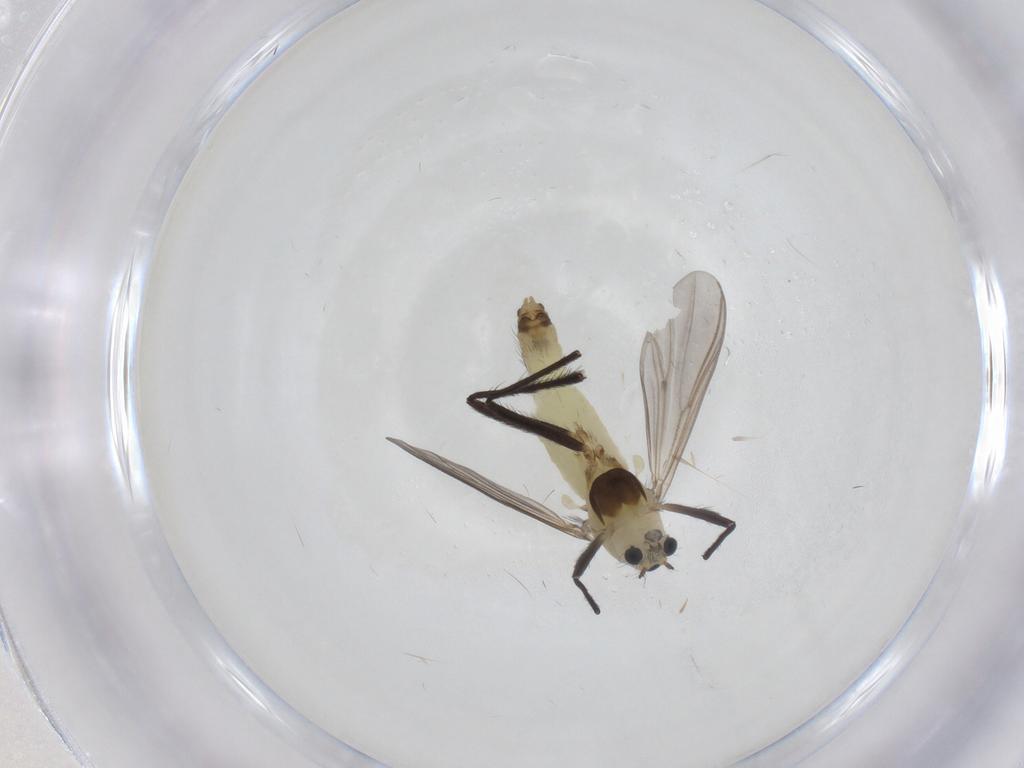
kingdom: Animalia
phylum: Arthropoda
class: Insecta
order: Diptera
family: Chironomidae
